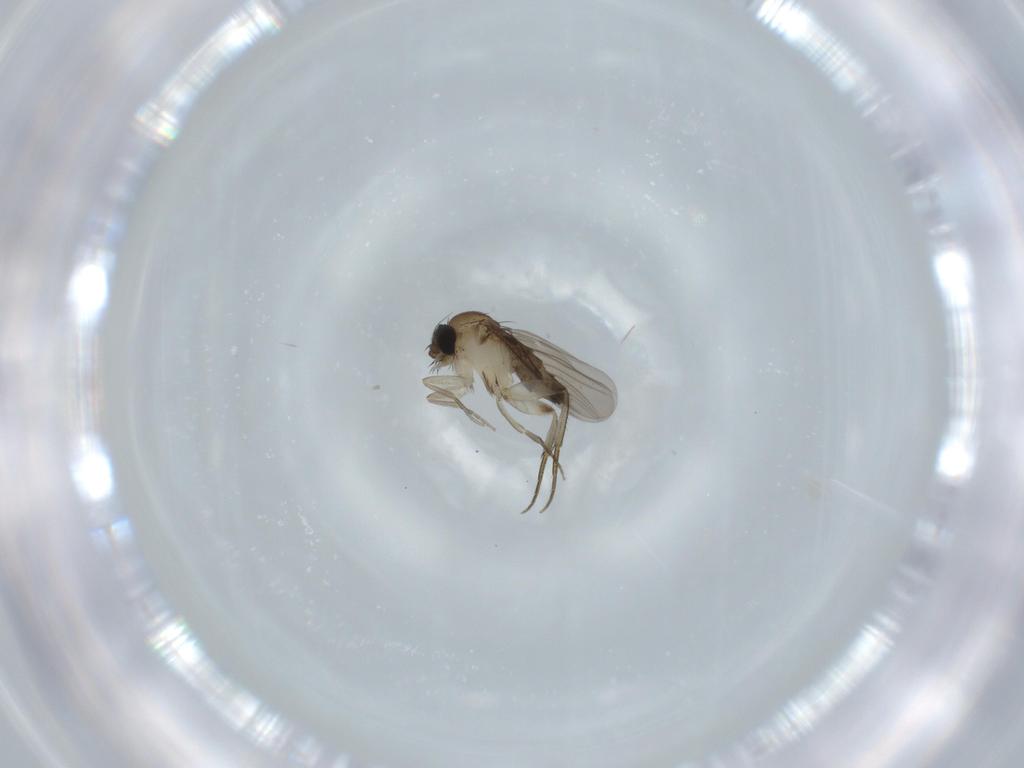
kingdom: Animalia
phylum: Arthropoda
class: Insecta
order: Diptera
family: Phoridae
